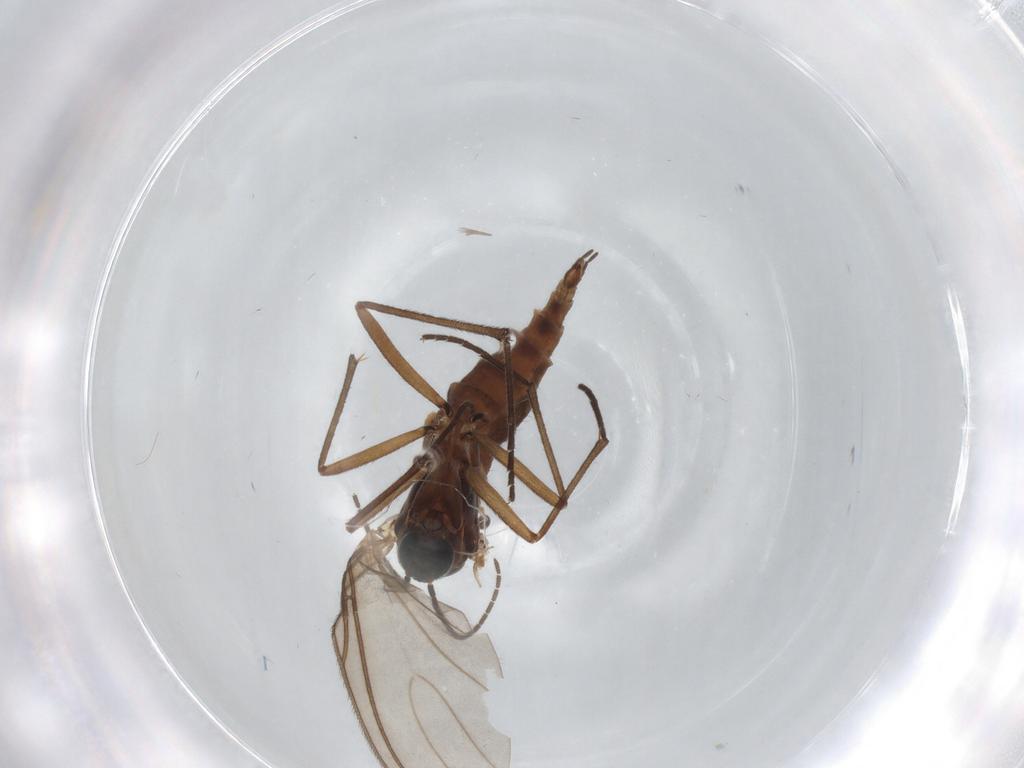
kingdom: Animalia
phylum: Arthropoda
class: Insecta
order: Diptera
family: Sciaridae
